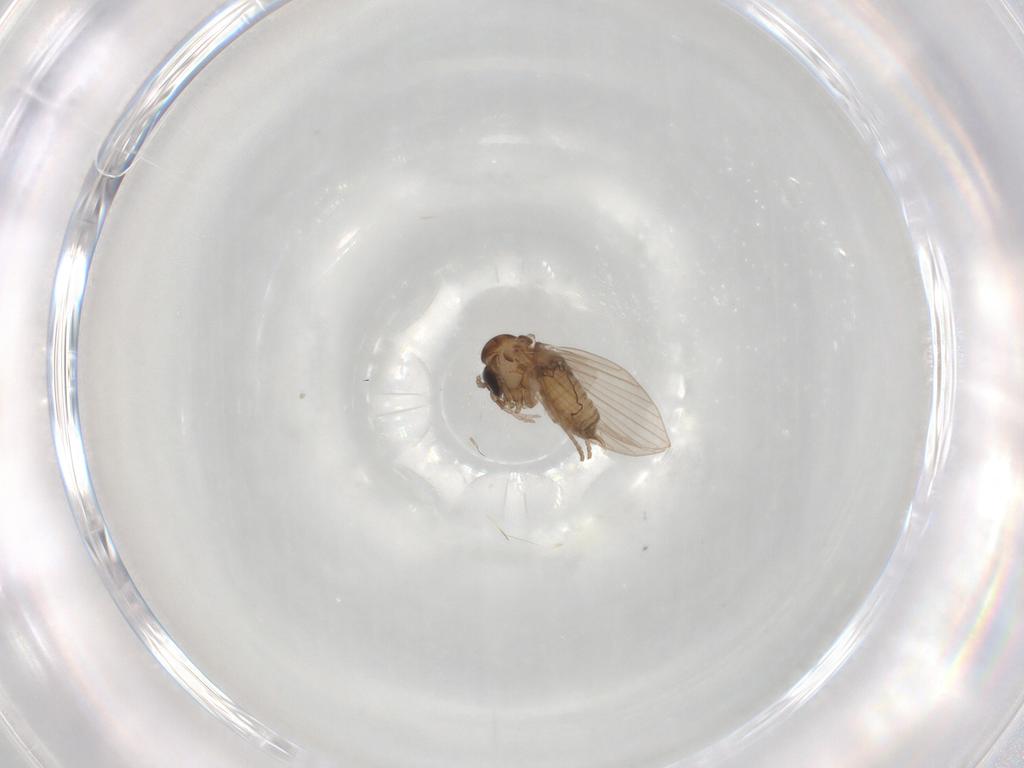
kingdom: Animalia
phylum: Arthropoda
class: Insecta
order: Diptera
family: Psychodidae
